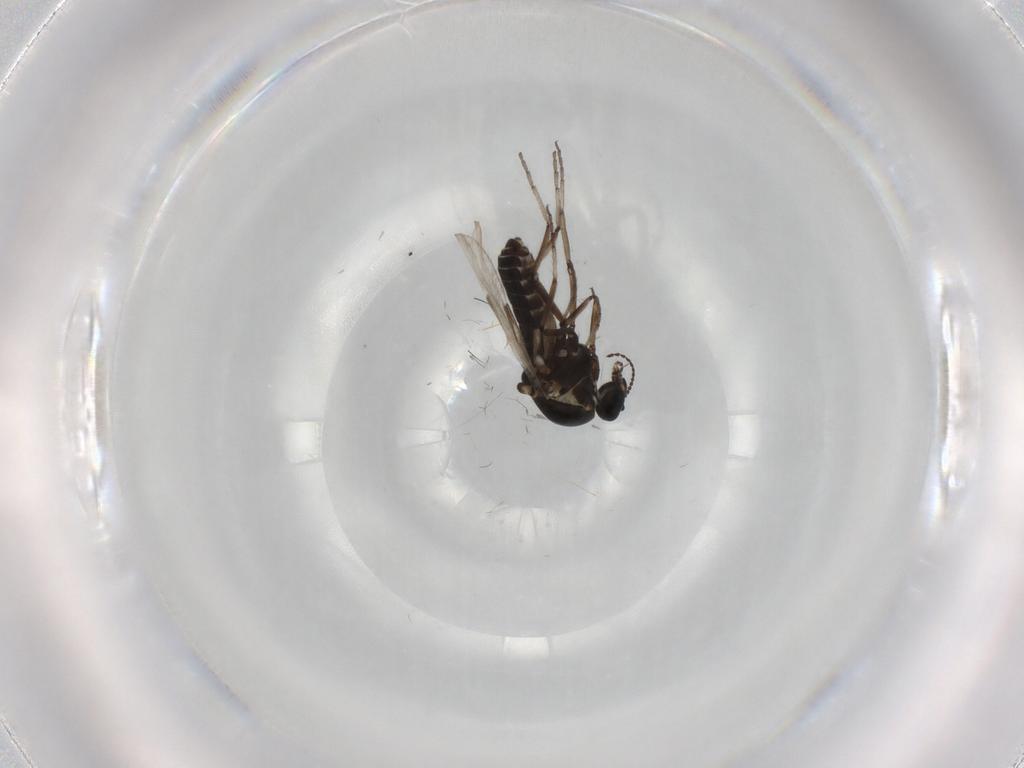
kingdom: Animalia
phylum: Arthropoda
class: Insecta
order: Diptera
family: Ceratopogonidae
